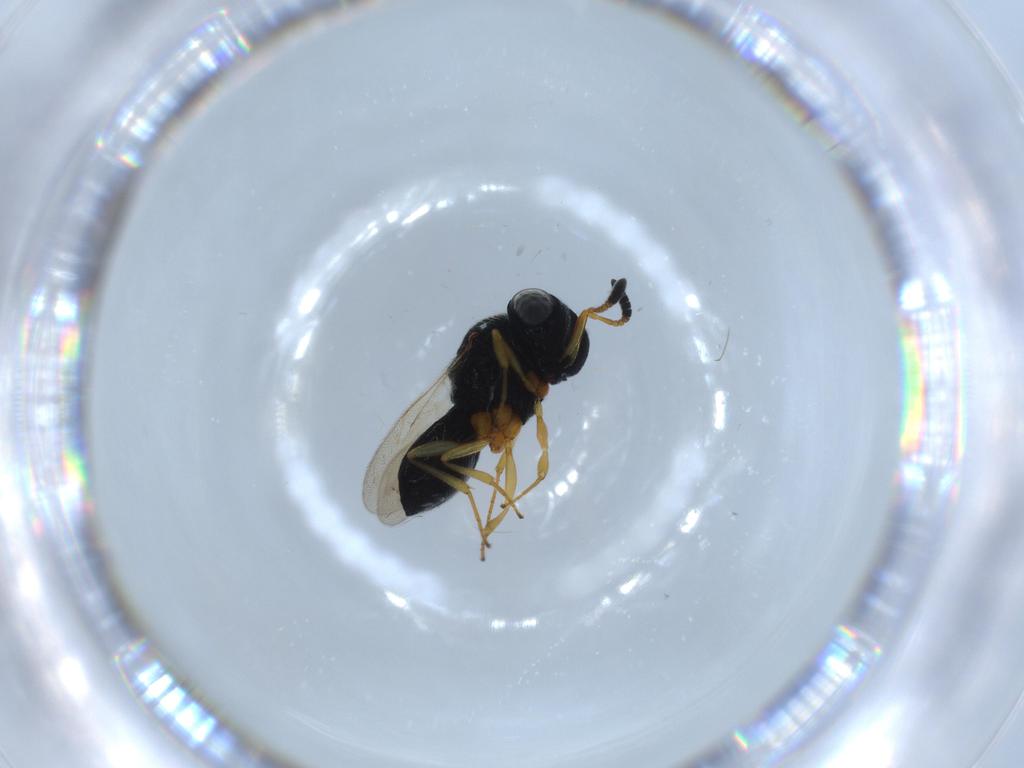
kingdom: Animalia
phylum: Arthropoda
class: Insecta
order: Hymenoptera
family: Scelionidae
